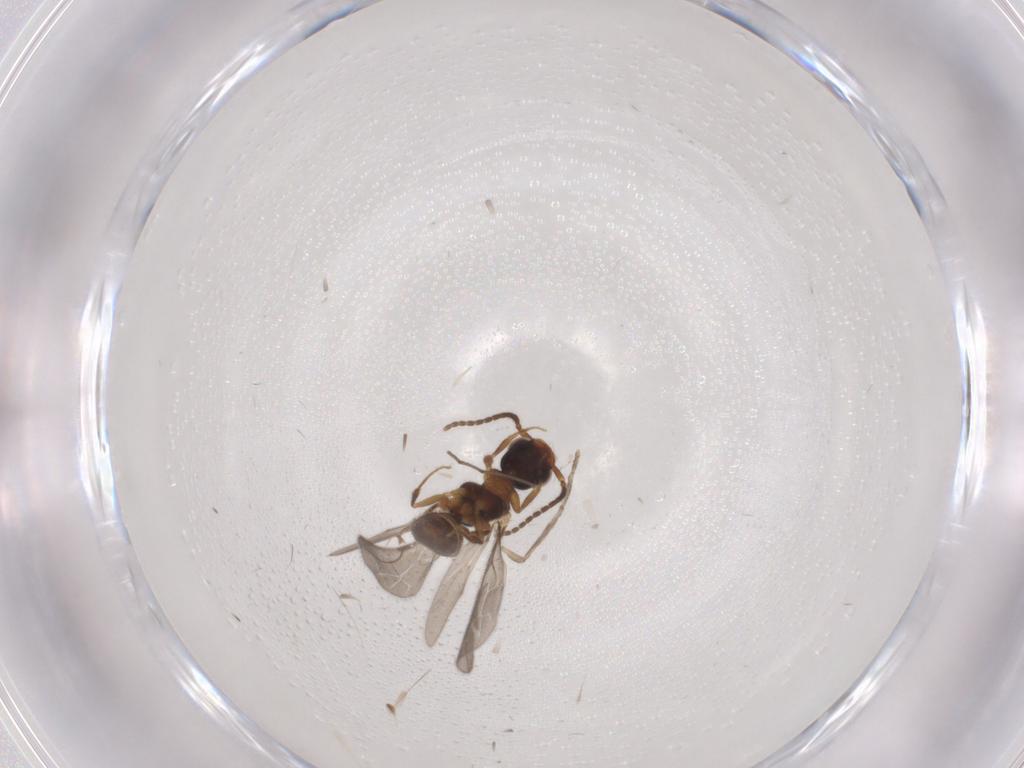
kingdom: Animalia
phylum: Arthropoda
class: Insecta
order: Hymenoptera
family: Bethylidae
